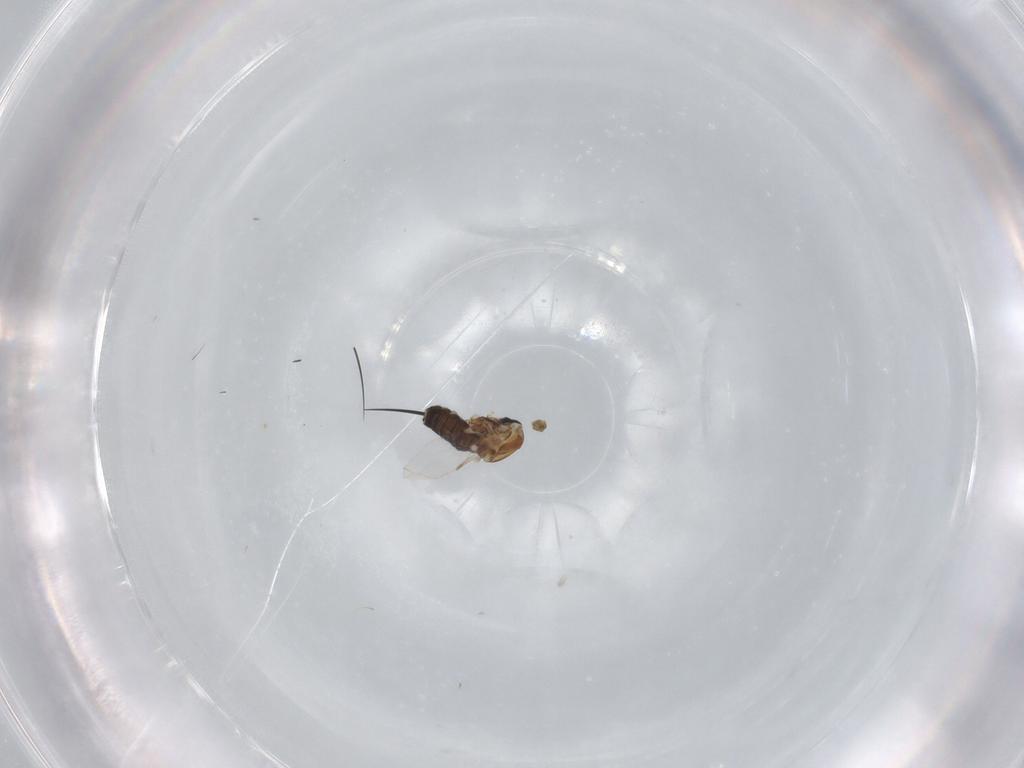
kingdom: Animalia
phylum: Arthropoda
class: Insecta
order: Diptera
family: Ceratopogonidae
